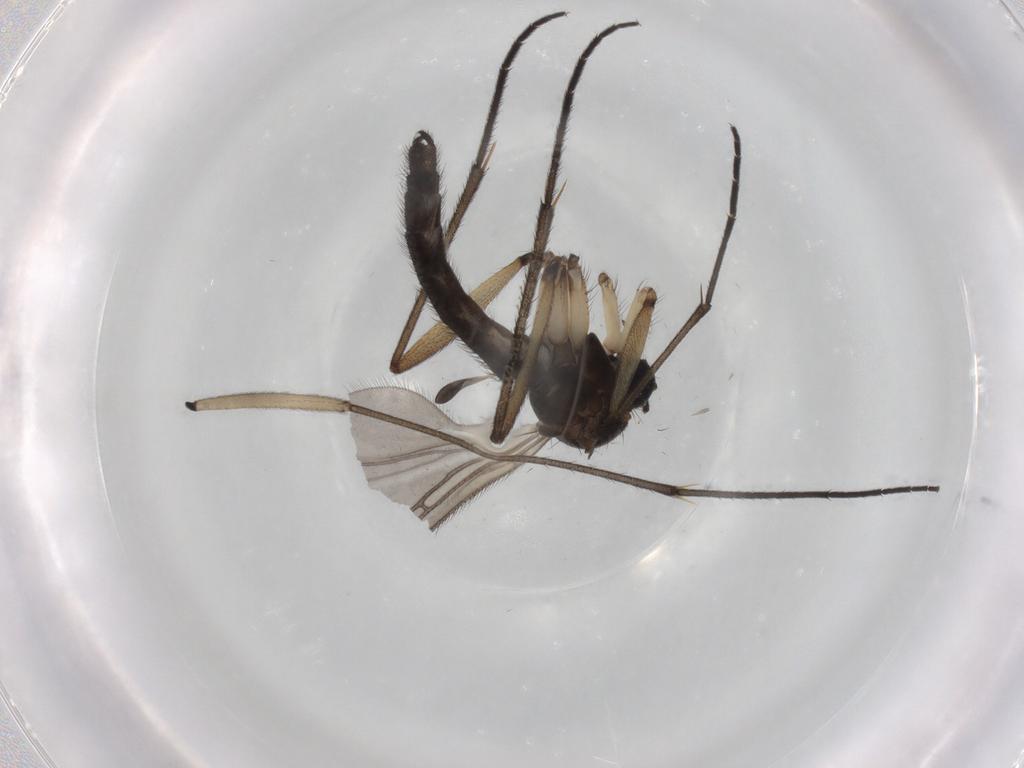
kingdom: Animalia
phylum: Arthropoda
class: Insecta
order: Diptera
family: Sciaridae
